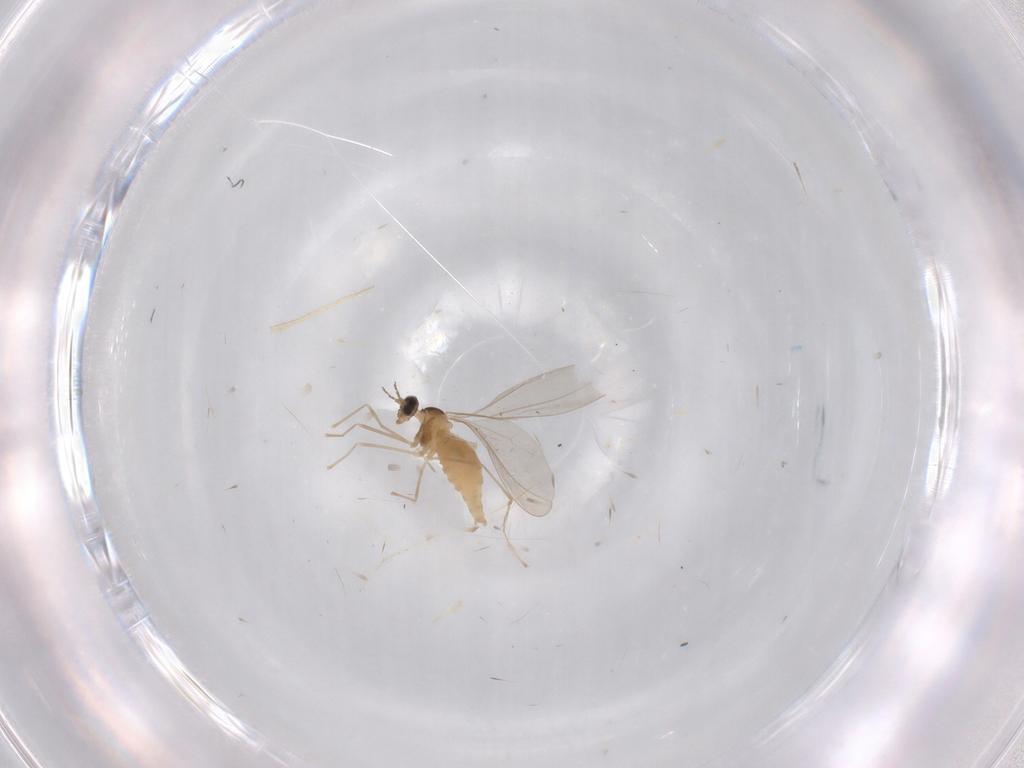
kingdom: Animalia
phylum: Arthropoda
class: Insecta
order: Diptera
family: Cecidomyiidae
